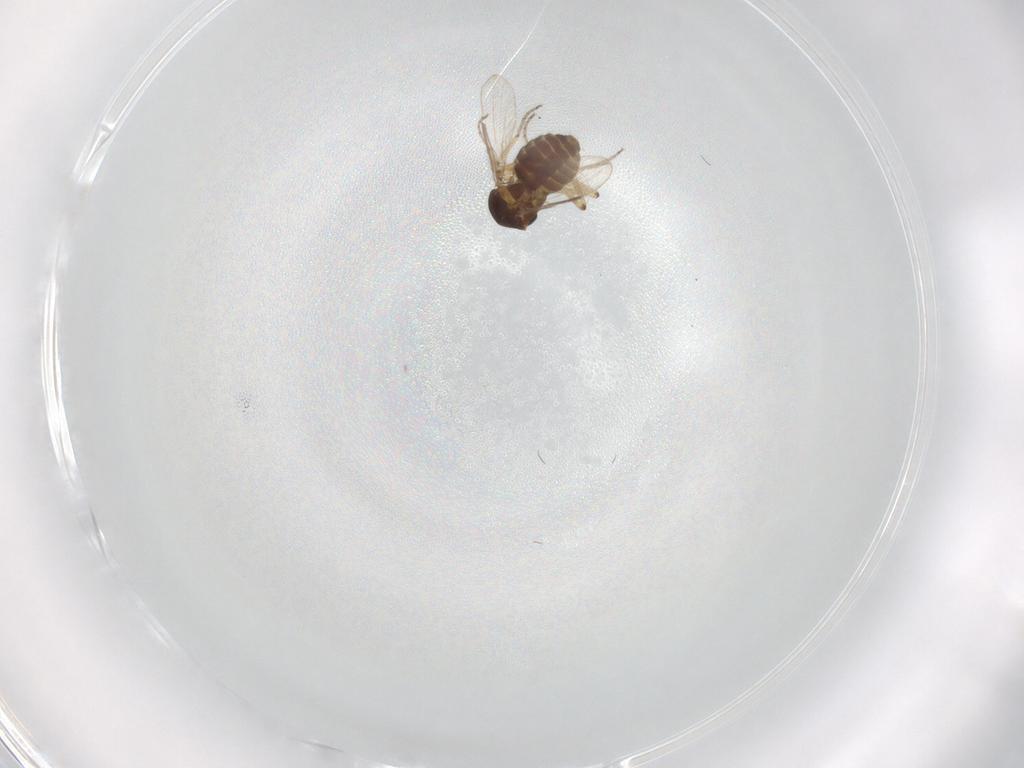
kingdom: Animalia
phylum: Arthropoda
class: Insecta
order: Diptera
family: Ceratopogonidae
